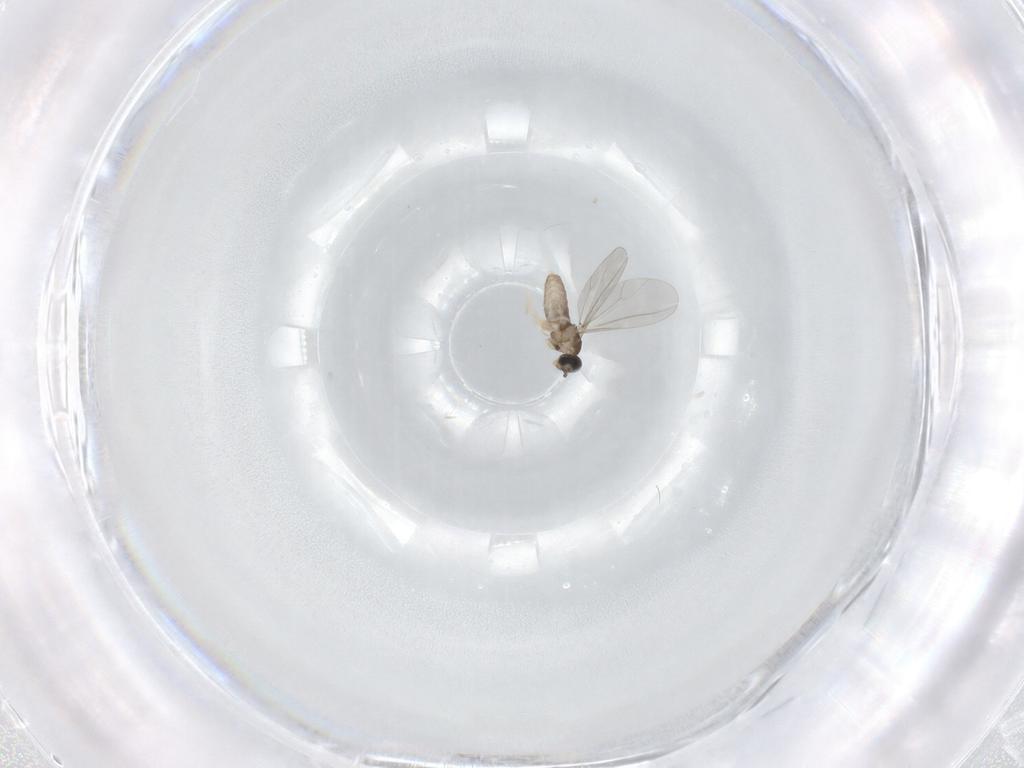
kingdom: Animalia
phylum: Arthropoda
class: Insecta
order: Diptera
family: Cecidomyiidae
